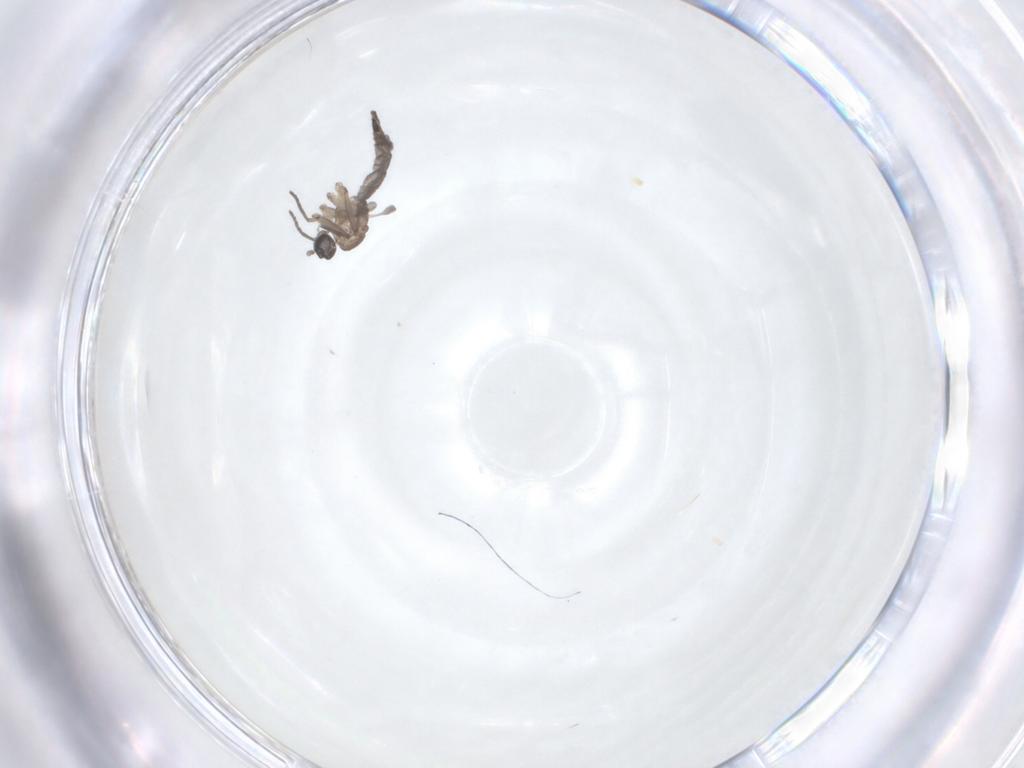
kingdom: Animalia
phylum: Arthropoda
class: Insecta
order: Diptera
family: Sciaridae
